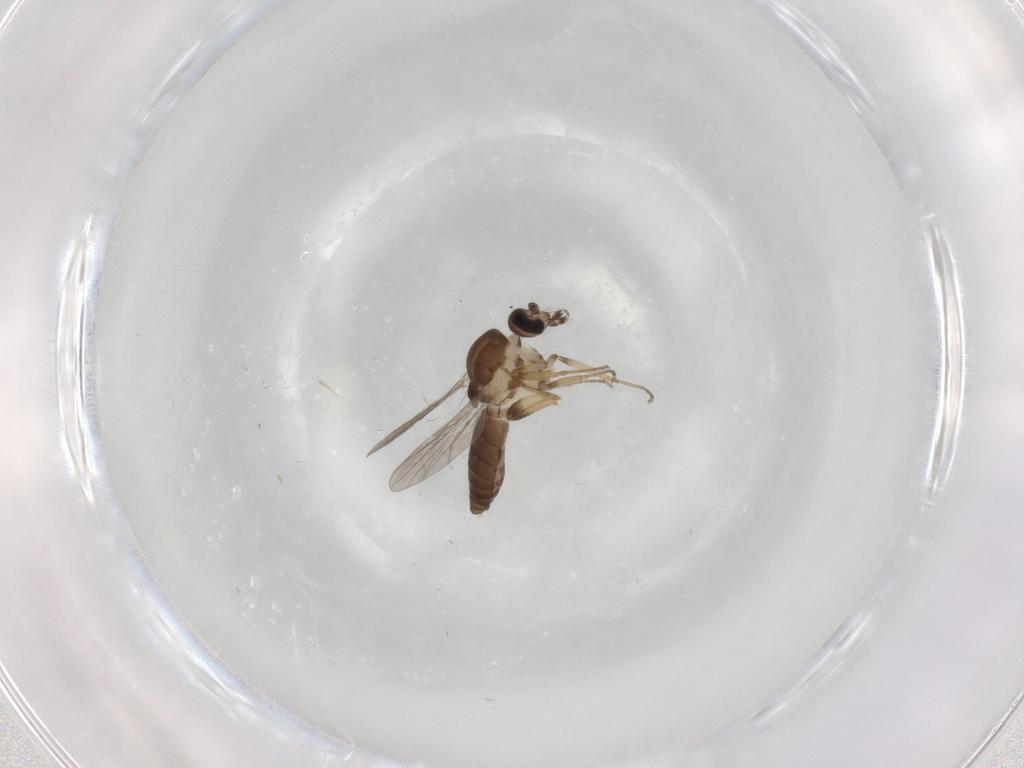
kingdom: Animalia
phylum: Arthropoda
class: Insecta
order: Diptera
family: Ceratopogonidae
